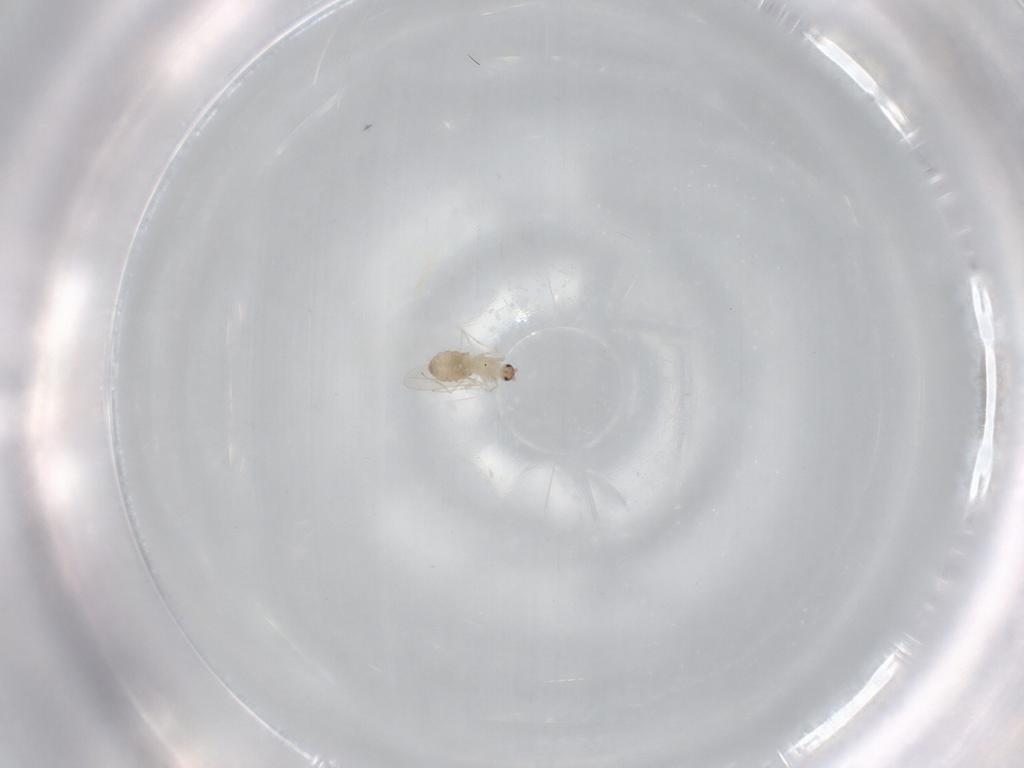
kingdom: Animalia
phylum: Arthropoda
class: Insecta
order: Diptera
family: Cecidomyiidae
